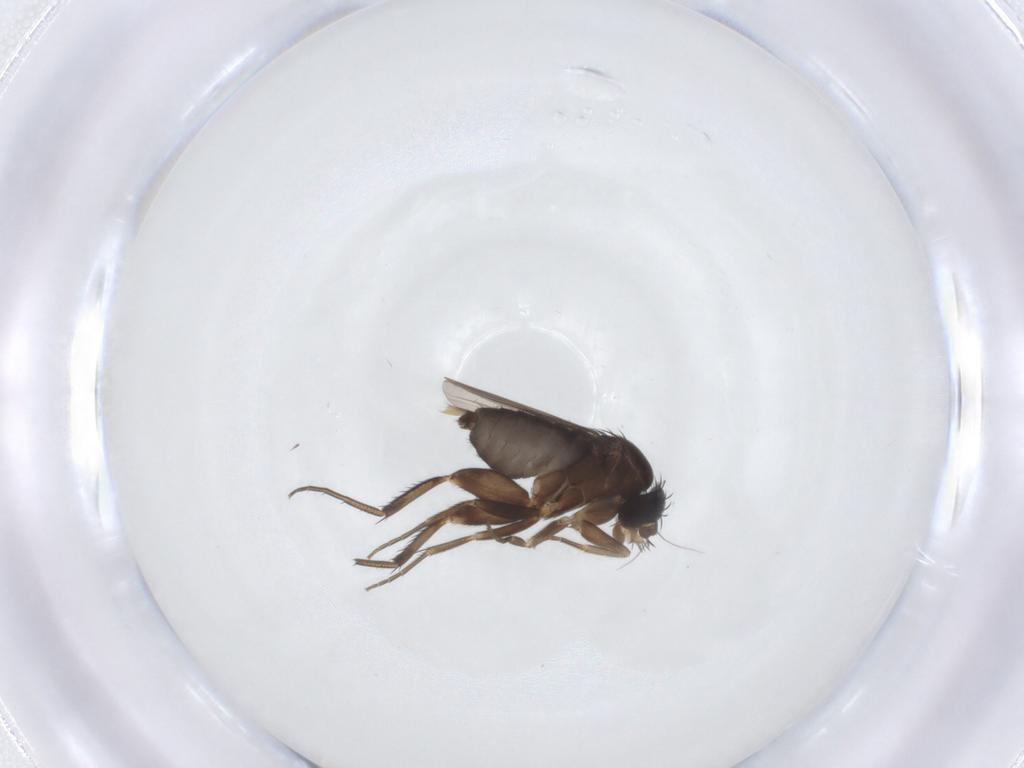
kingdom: Animalia
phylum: Arthropoda
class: Insecta
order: Diptera
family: Phoridae
